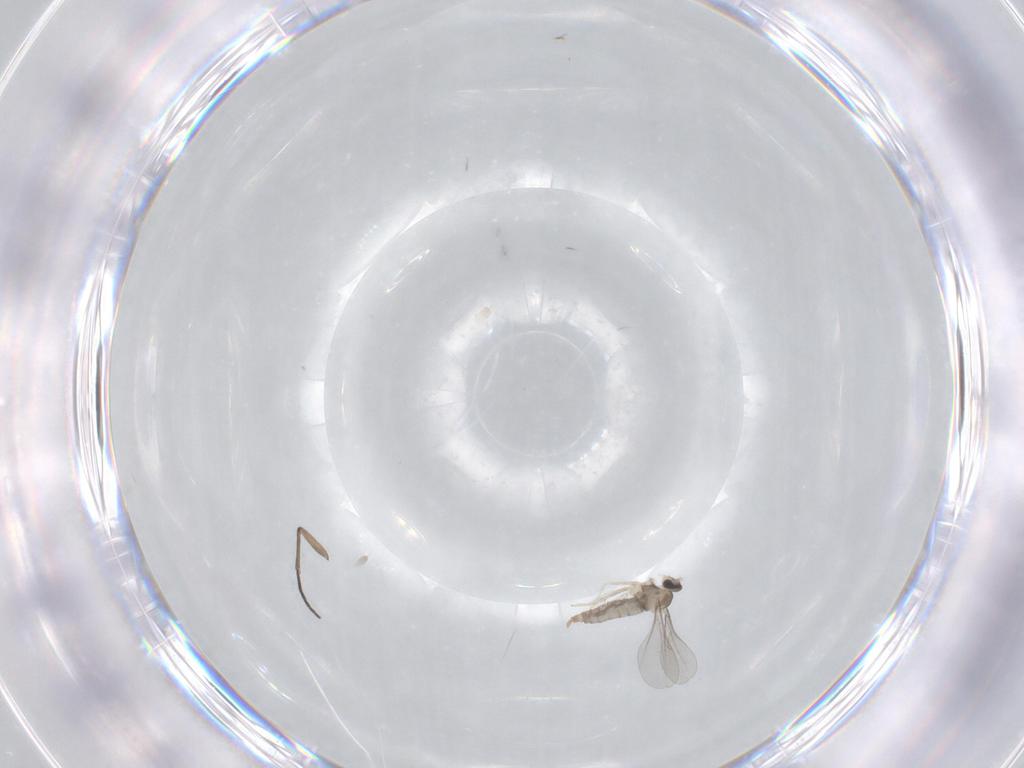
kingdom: Animalia
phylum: Arthropoda
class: Insecta
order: Diptera
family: Cecidomyiidae
